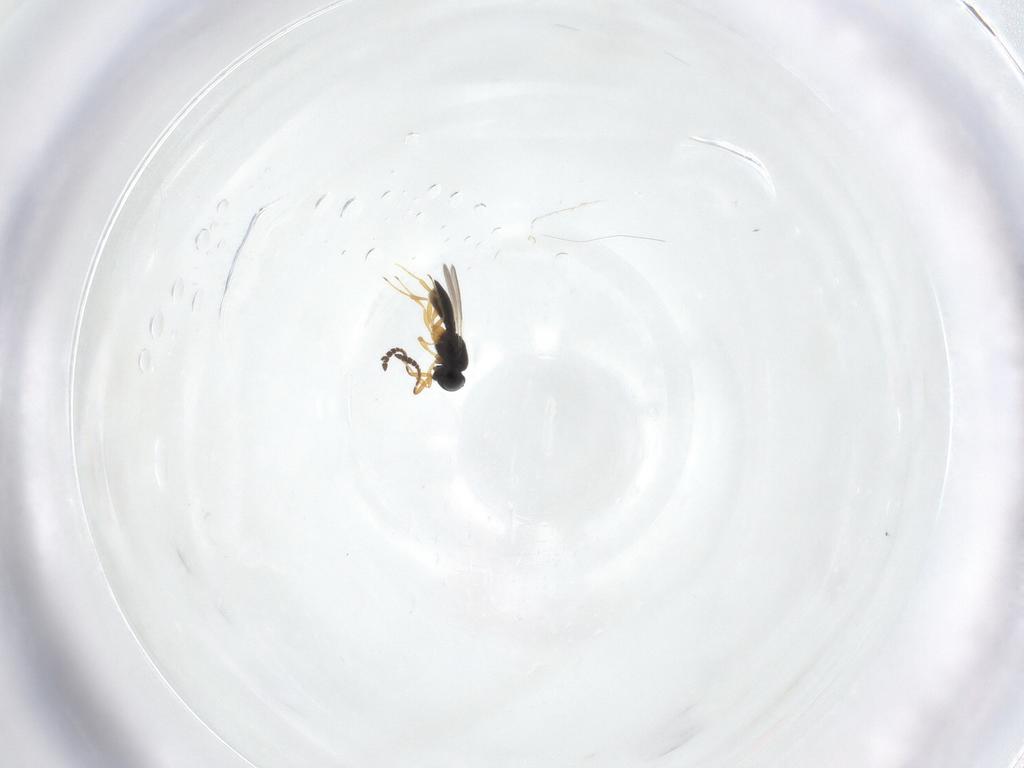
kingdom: Animalia
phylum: Arthropoda
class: Insecta
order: Hymenoptera
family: Scelionidae
